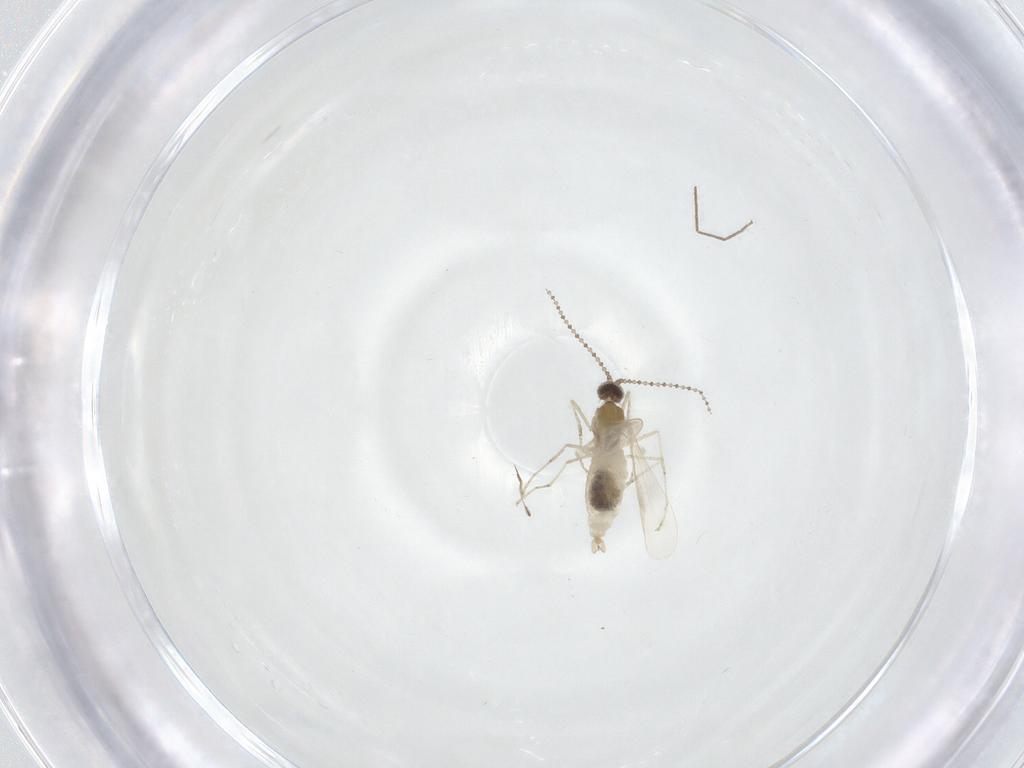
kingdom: Animalia
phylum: Arthropoda
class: Insecta
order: Diptera
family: Cecidomyiidae
